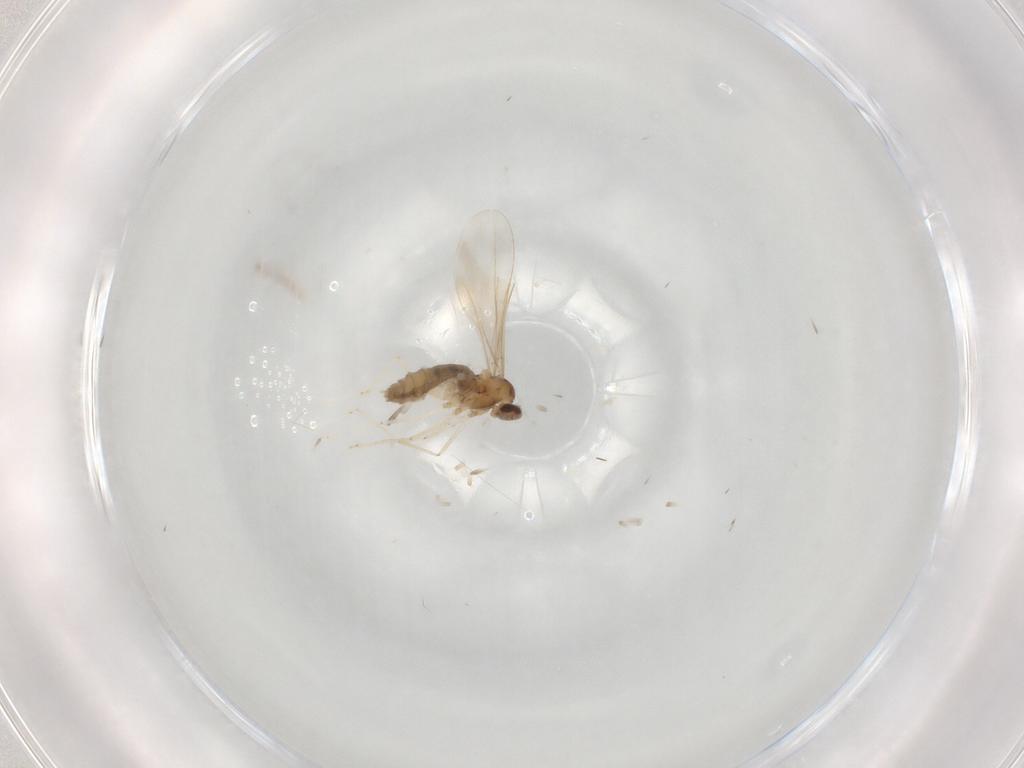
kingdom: Animalia
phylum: Arthropoda
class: Insecta
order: Diptera
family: Cecidomyiidae
